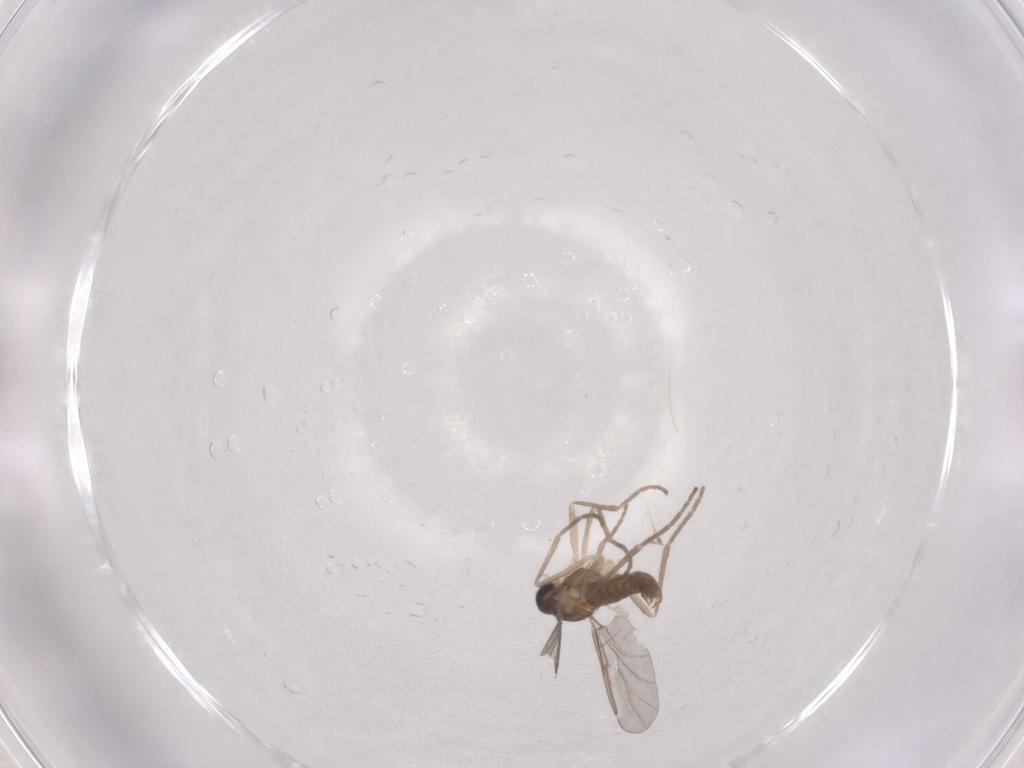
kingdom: Animalia
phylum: Arthropoda
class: Insecta
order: Diptera
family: Cecidomyiidae
